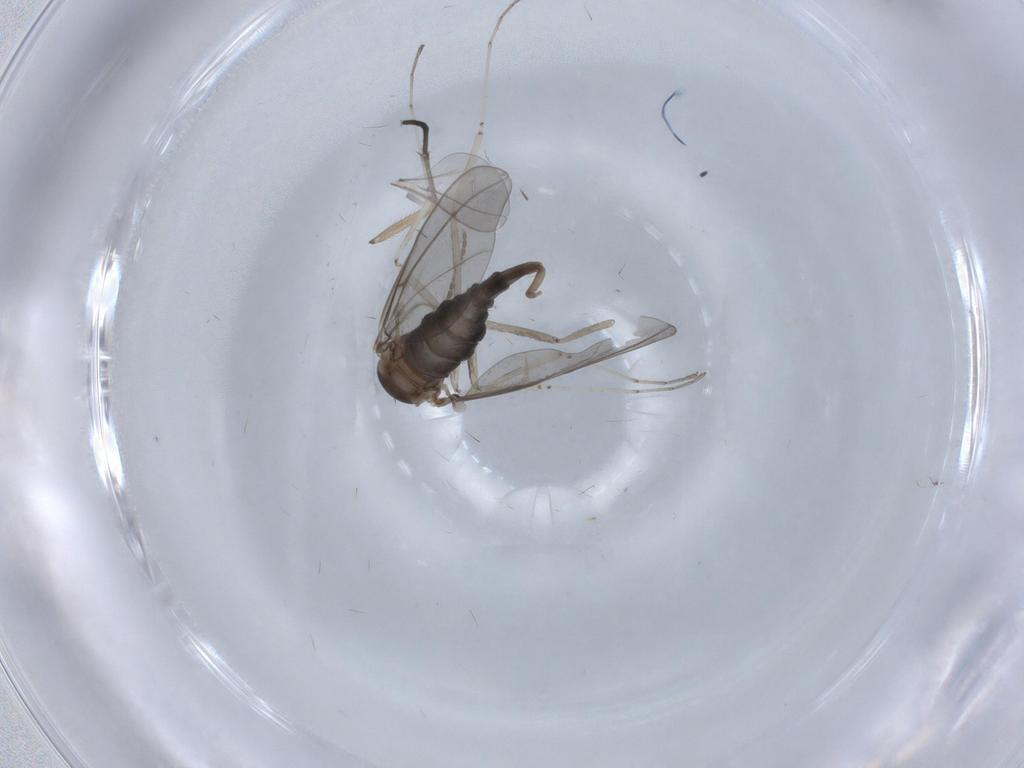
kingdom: Animalia
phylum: Arthropoda
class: Insecta
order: Diptera
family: Cecidomyiidae
